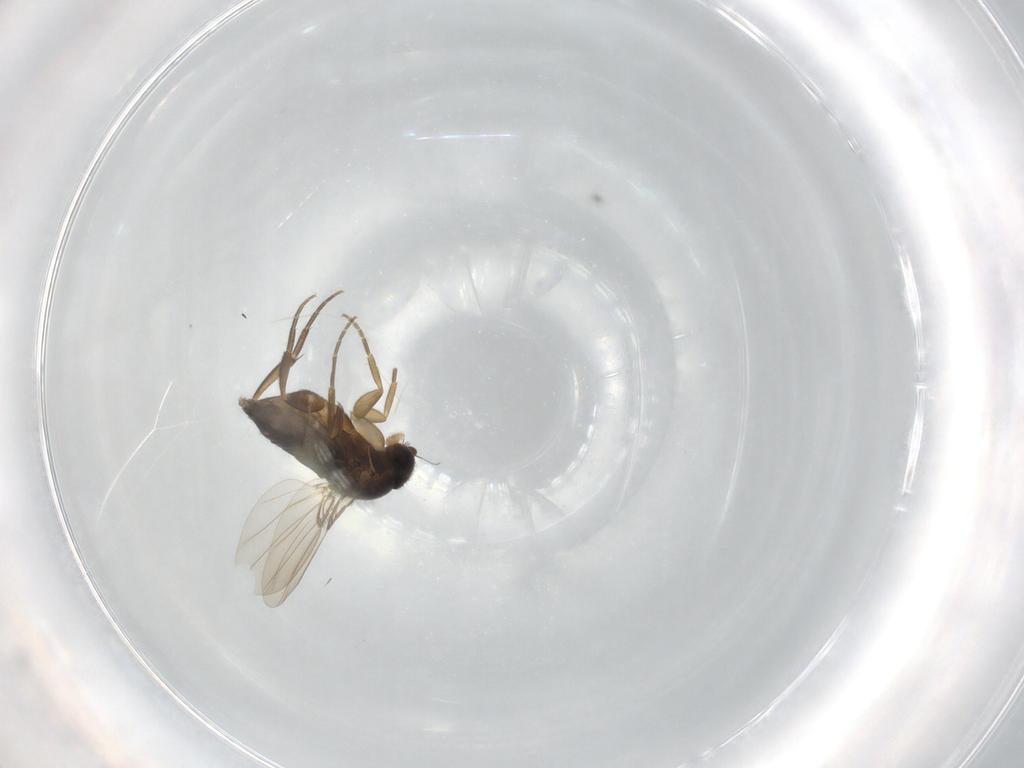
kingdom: Animalia
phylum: Arthropoda
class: Insecta
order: Diptera
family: Phoridae
